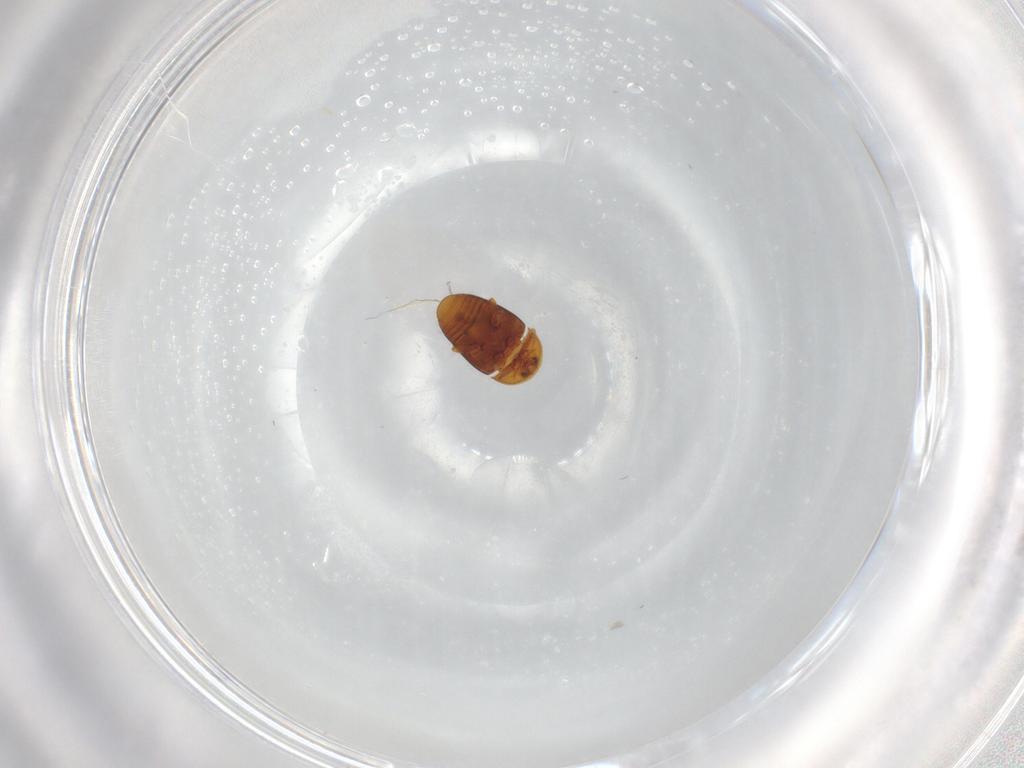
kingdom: Animalia
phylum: Arthropoda
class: Insecta
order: Coleoptera
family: Corylophidae
